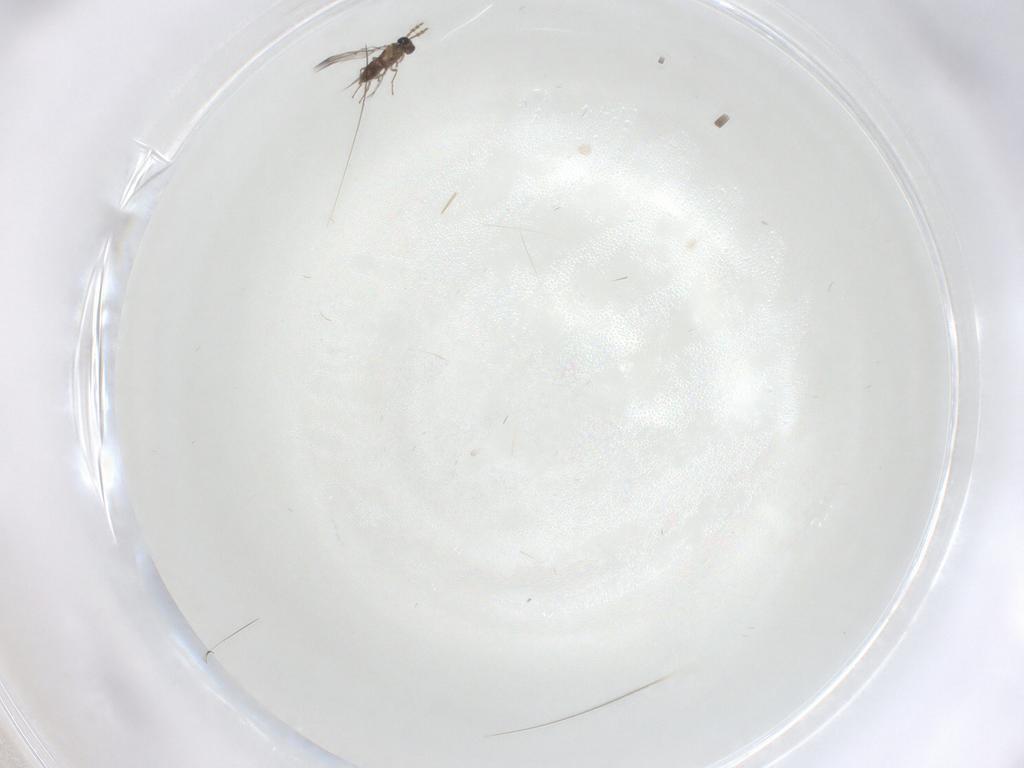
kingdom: Animalia
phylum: Arthropoda
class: Insecta
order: Hymenoptera
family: Trichogrammatidae
